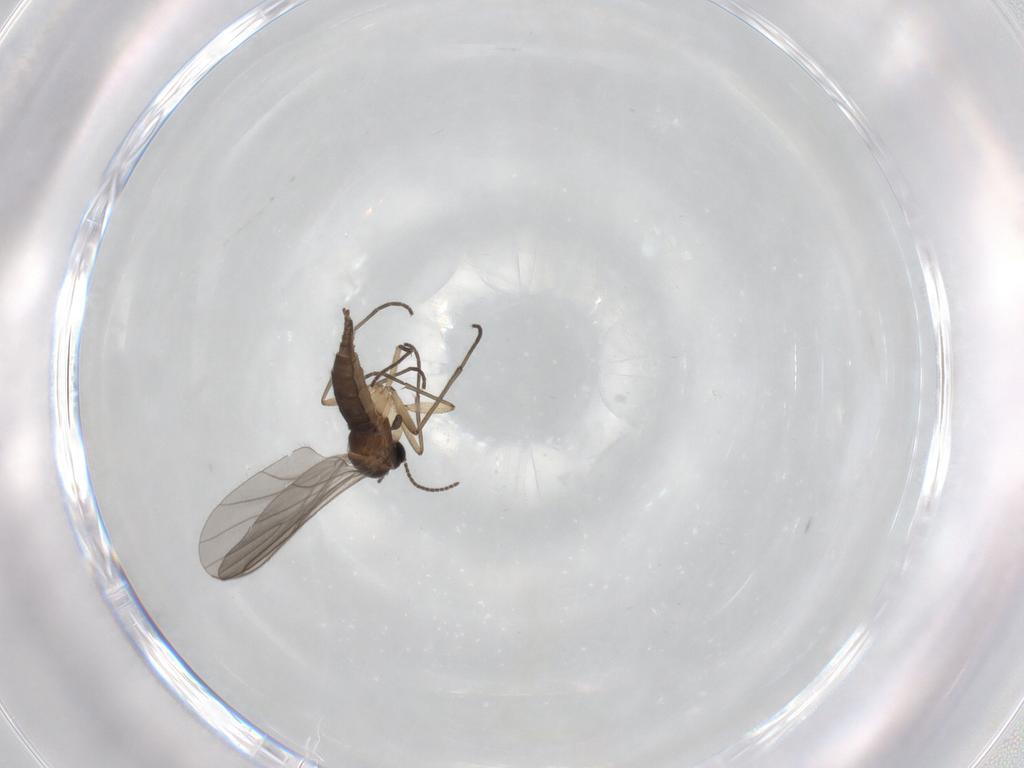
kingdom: Animalia
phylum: Arthropoda
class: Insecta
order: Diptera
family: Sciaridae
